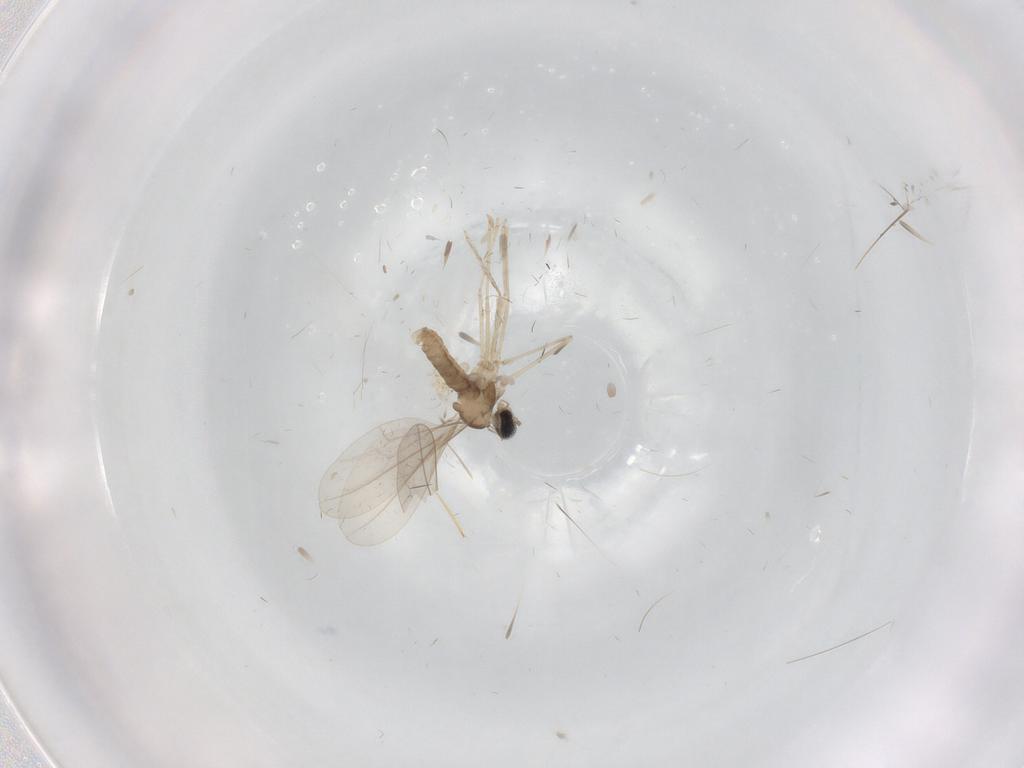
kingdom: Animalia
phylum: Arthropoda
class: Insecta
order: Diptera
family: Cecidomyiidae
